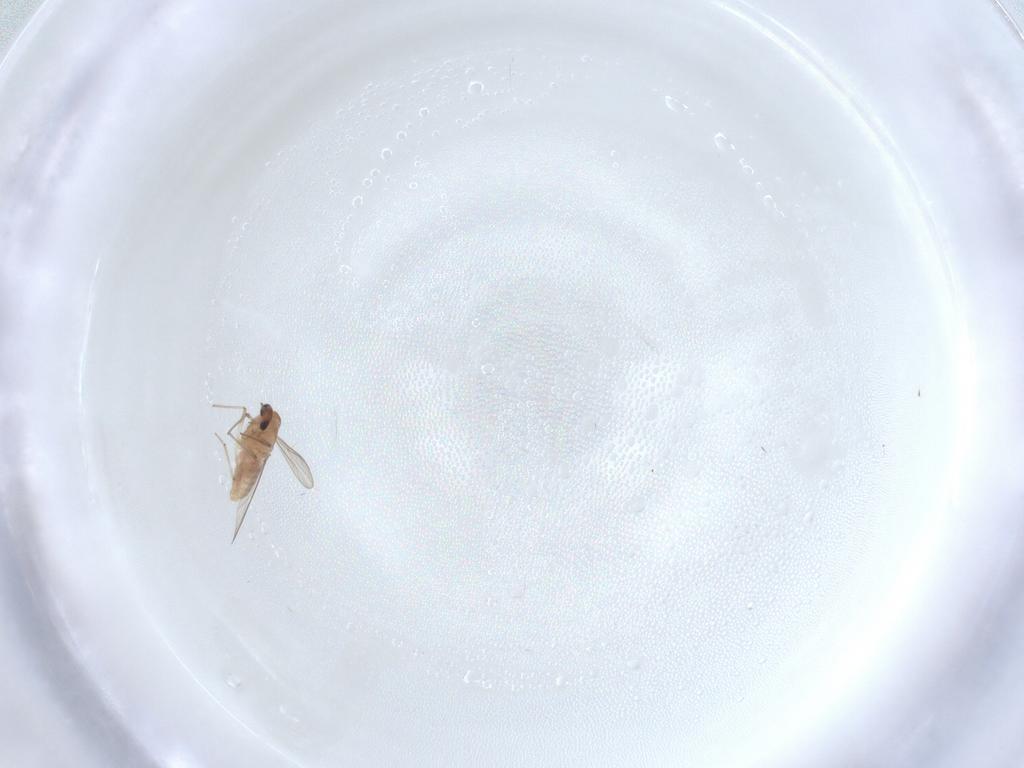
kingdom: Animalia
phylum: Arthropoda
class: Insecta
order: Diptera
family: Chironomidae
